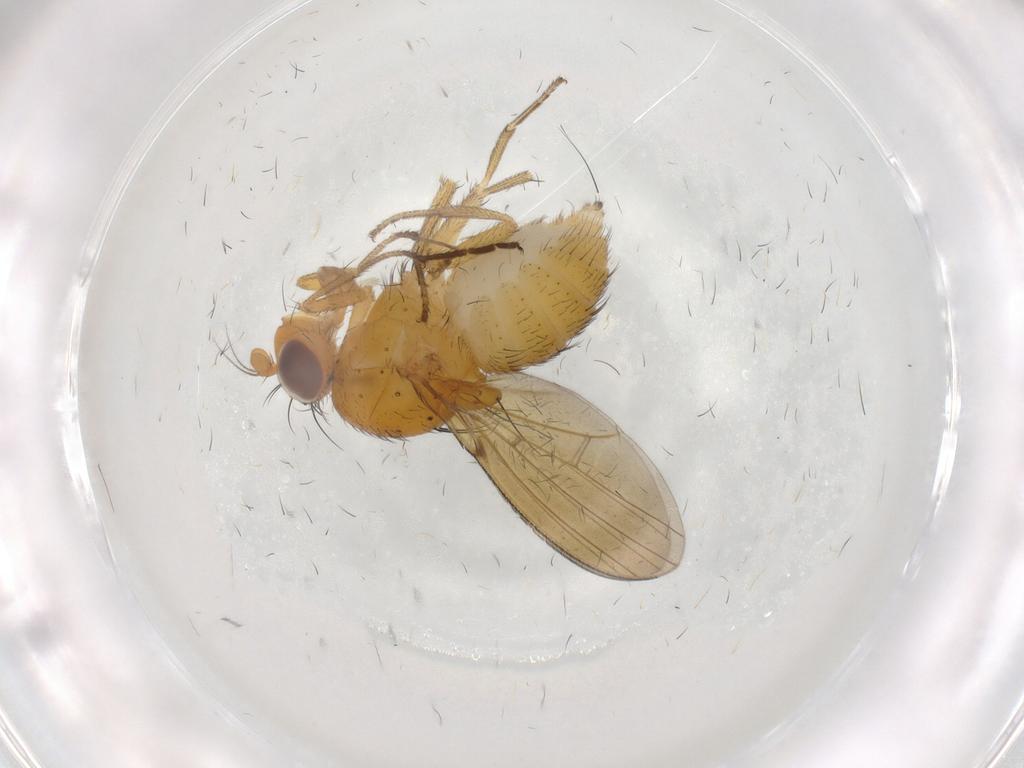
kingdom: Animalia
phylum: Arthropoda
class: Insecta
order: Diptera
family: Limoniidae
